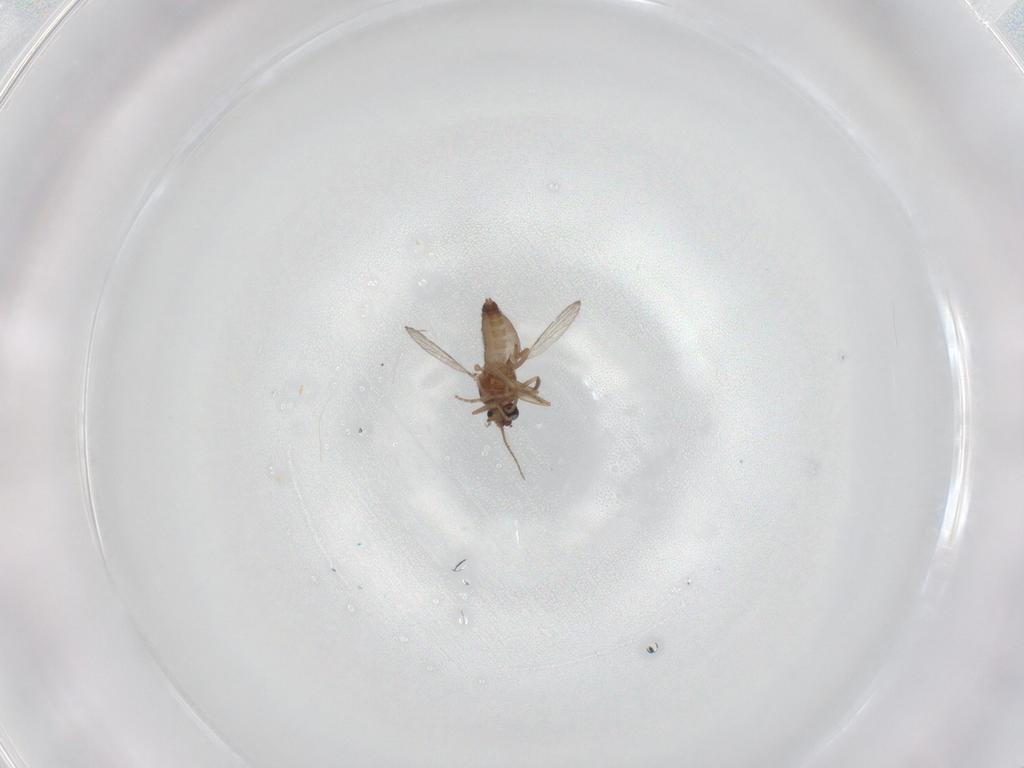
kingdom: Animalia
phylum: Arthropoda
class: Insecta
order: Diptera
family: Ceratopogonidae
